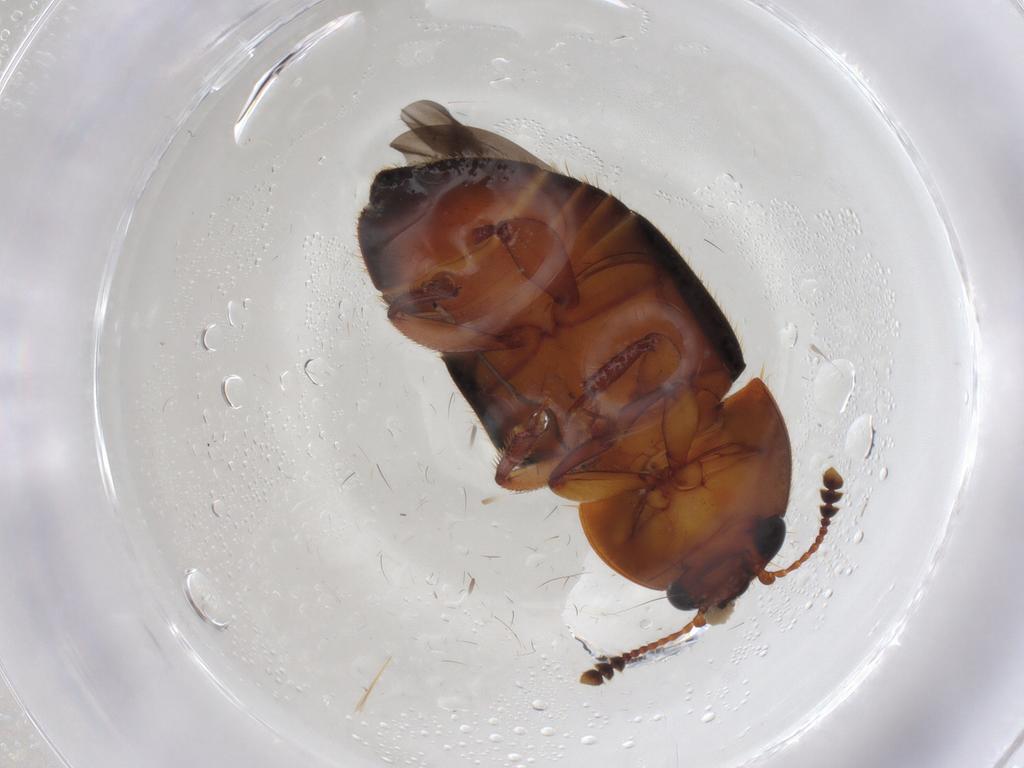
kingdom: Animalia
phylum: Arthropoda
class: Insecta
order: Coleoptera
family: Nitidulidae
